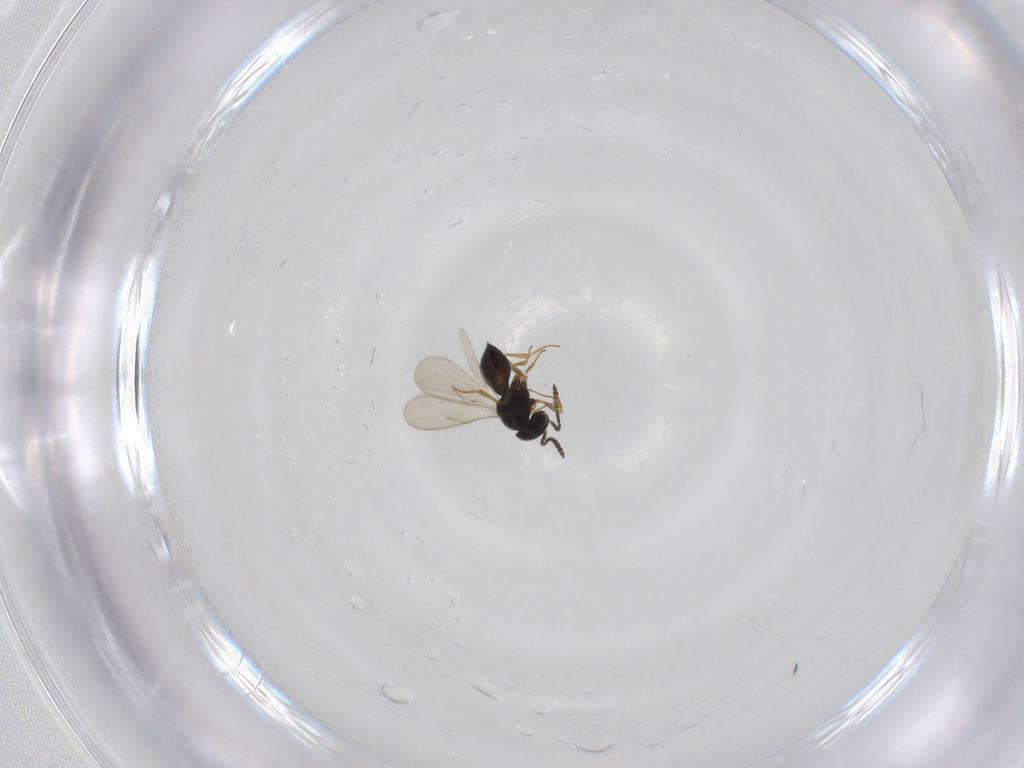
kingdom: Animalia
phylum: Arthropoda
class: Insecta
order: Hymenoptera
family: Scelionidae
